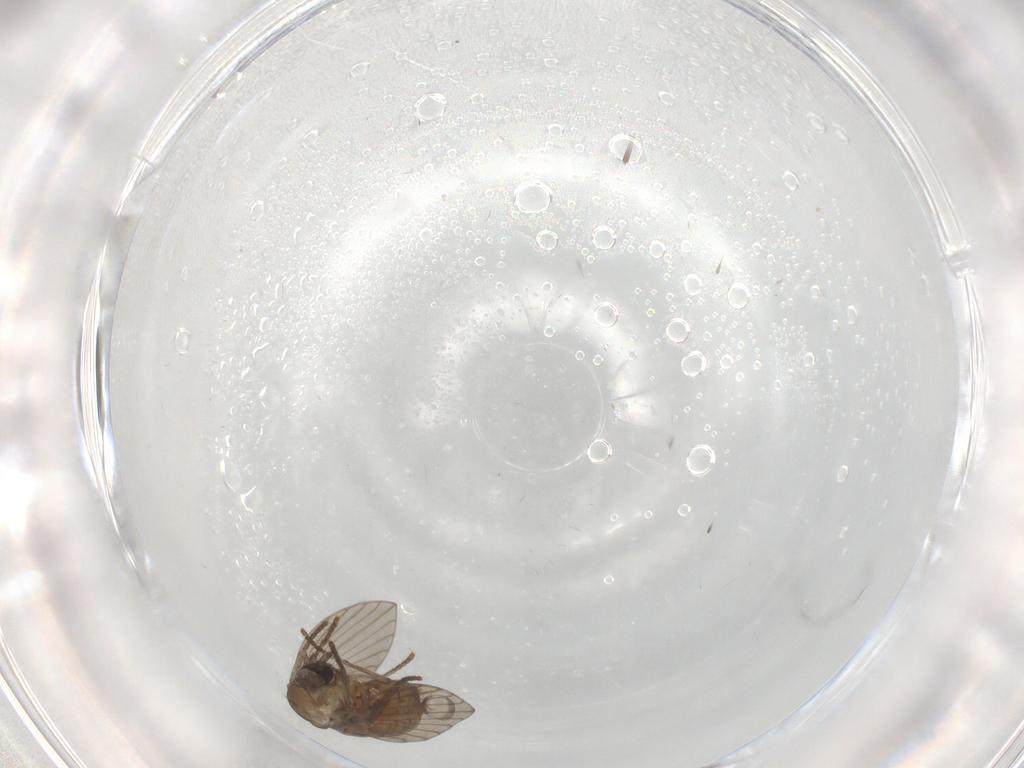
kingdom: Animalia
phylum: Arthropoda
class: Insecta
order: Diptera
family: Psychodidae
